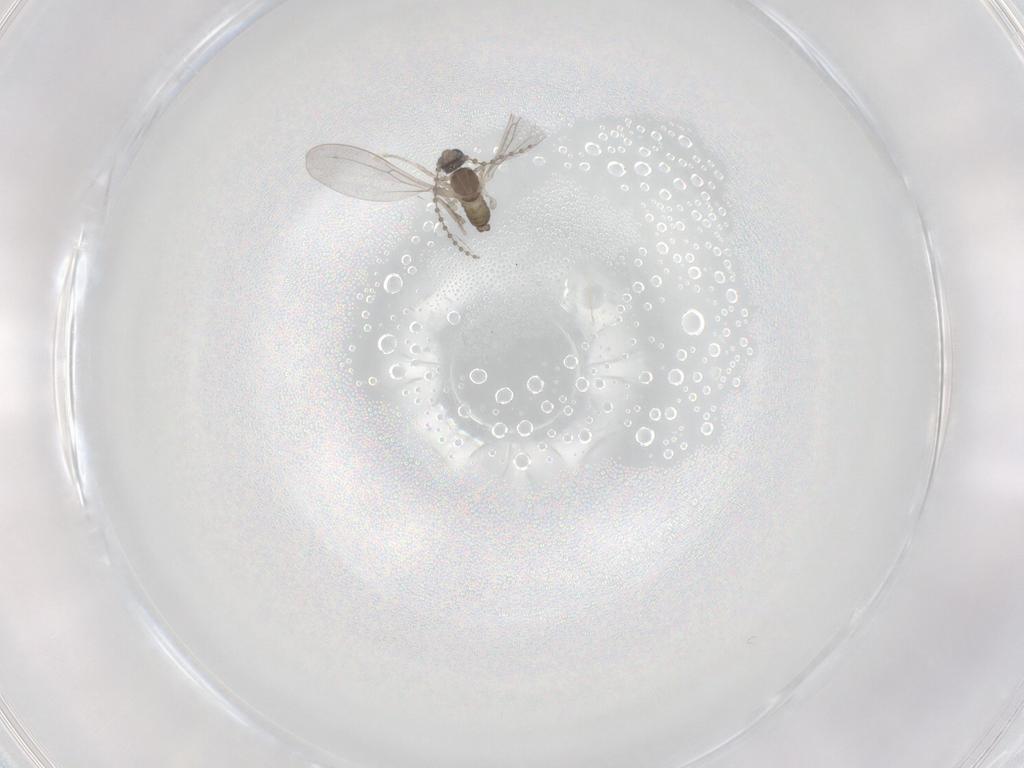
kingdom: Animalia
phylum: Arthropoda
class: Insecta
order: Diptera
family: Cecidomyiidae
